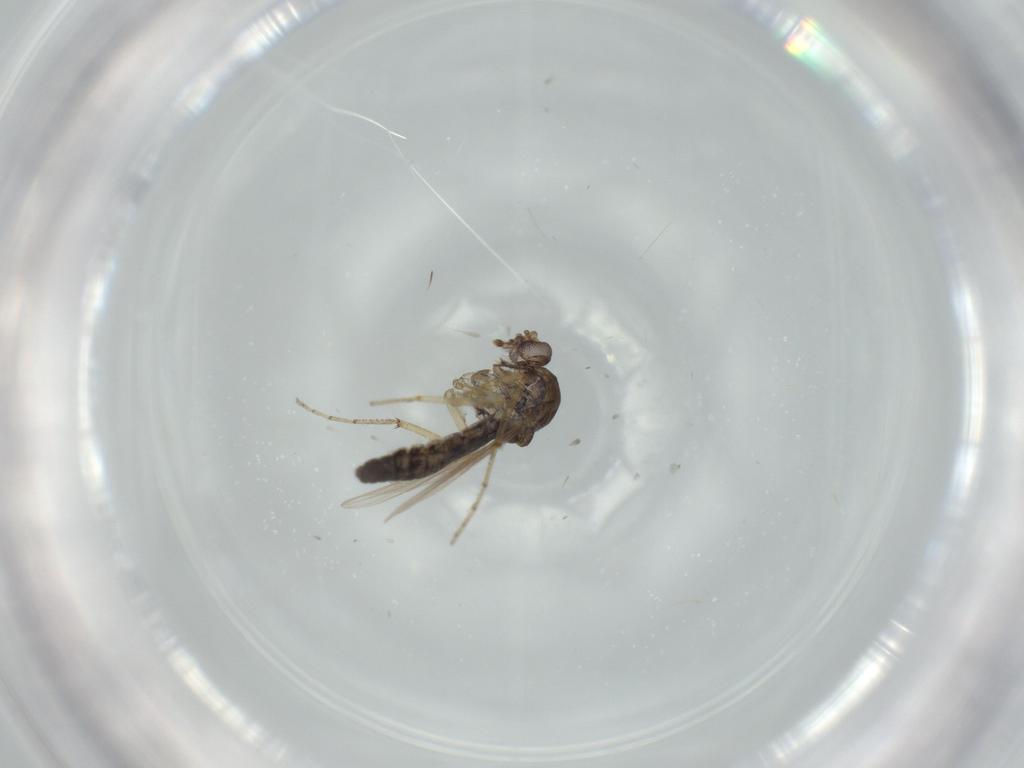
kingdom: Animalia
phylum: Arthropoda
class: Insecta
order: Diptera
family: Ceratopogonidae
